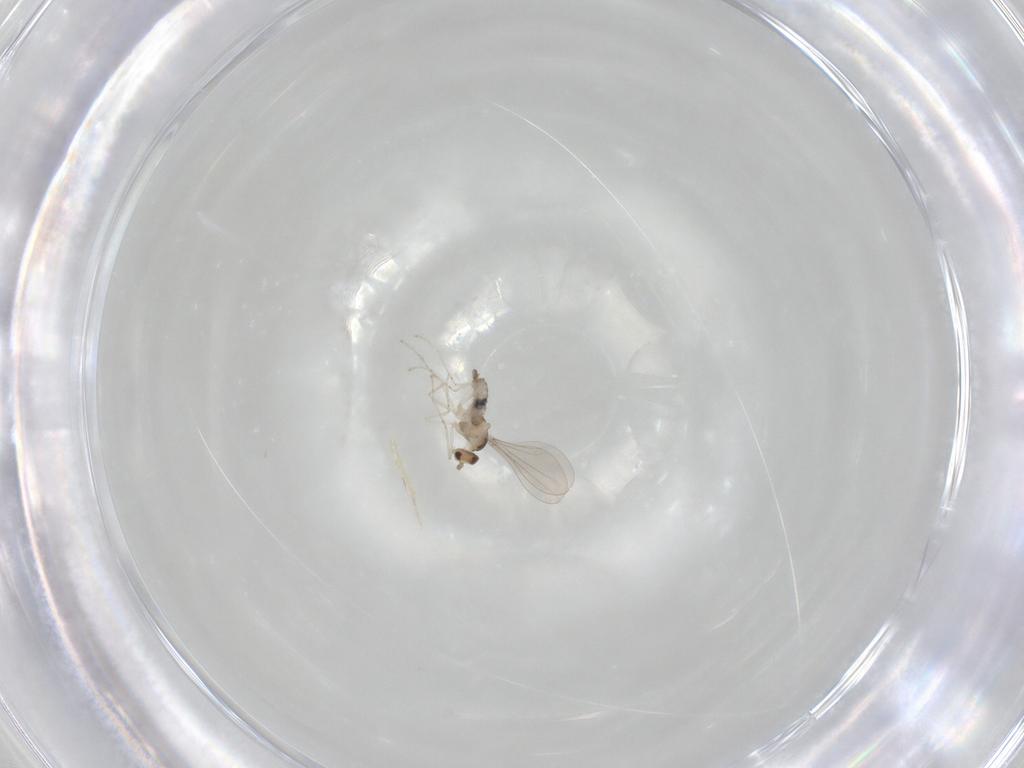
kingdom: Animalia
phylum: Arthropoda
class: Insecta
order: Diptera
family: Cecidomyiidae
